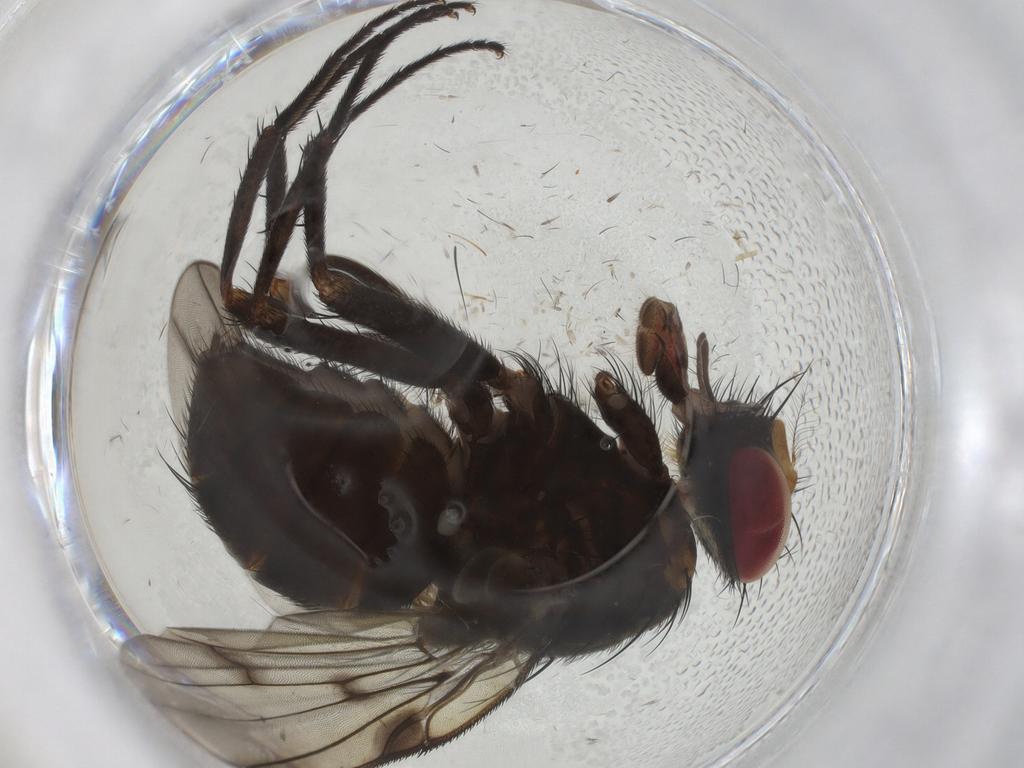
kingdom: Animalia
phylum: Arthropoda
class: Insecta
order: Diptera
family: Dolichopodidae
